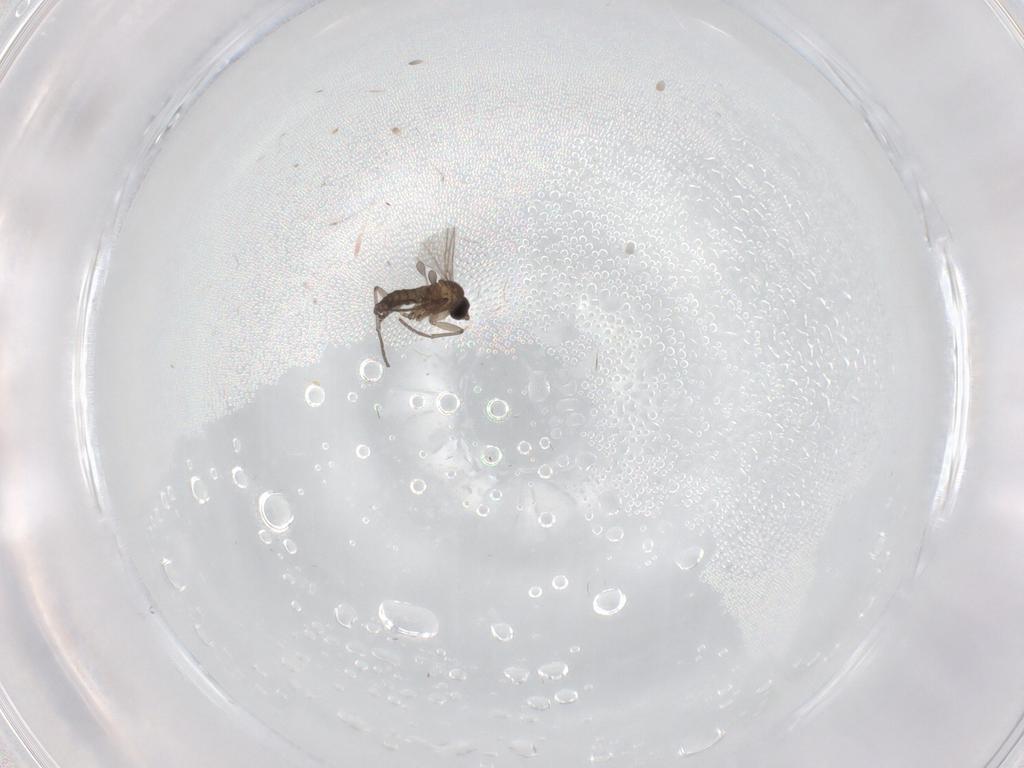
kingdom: Animalia
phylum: Arthropoda
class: Insecta
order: Diptera
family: Sciaridae
